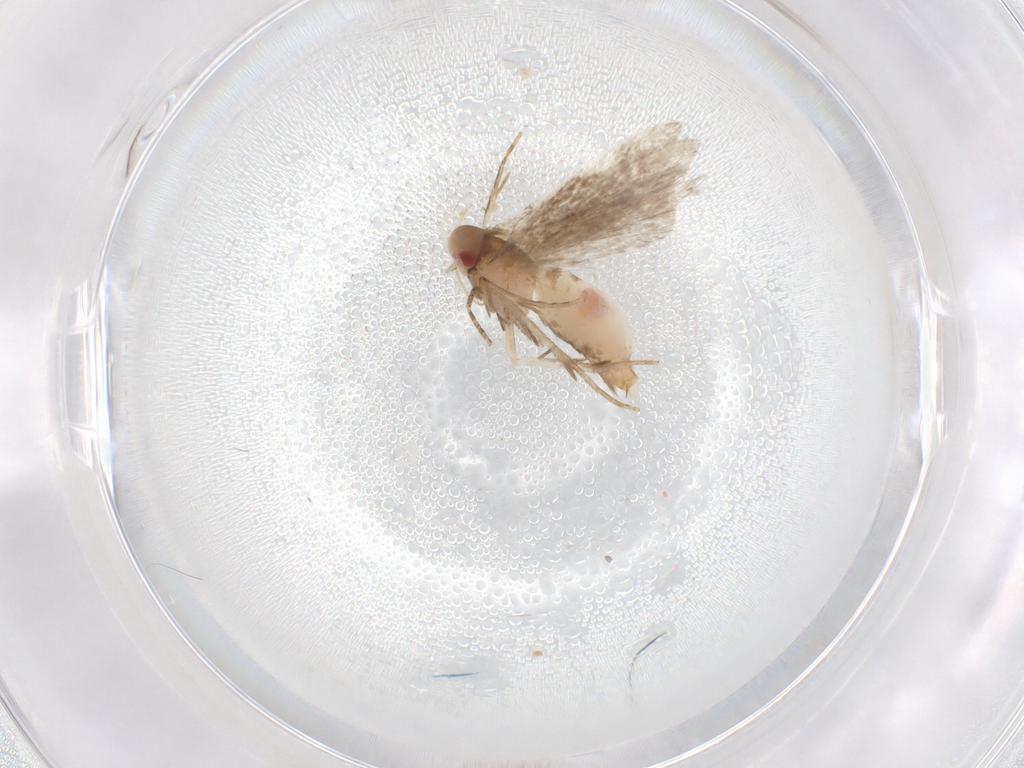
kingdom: Animalia
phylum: Arthropoda
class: Insecta
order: Lepidoptera
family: Gelechiidae
